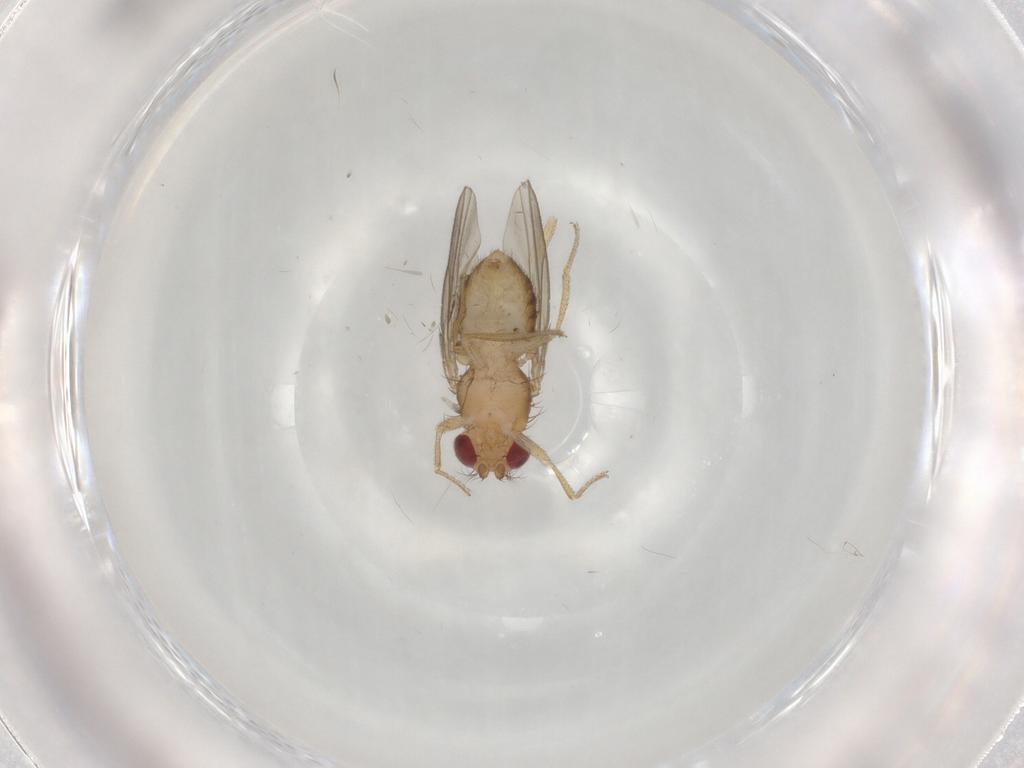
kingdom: Animalia
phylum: Arthropoda
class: Insecta
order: Diptera
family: Drosophilidae
